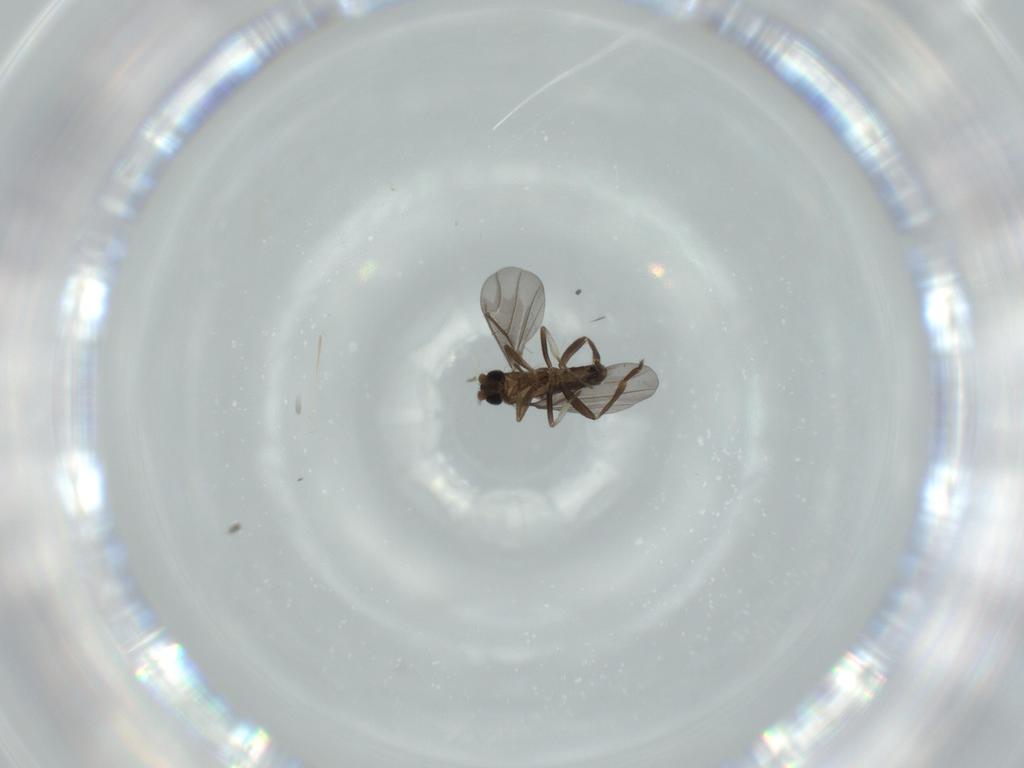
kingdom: Animalia
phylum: Arthropoda
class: Insecta
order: Diptera
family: Phoridae
